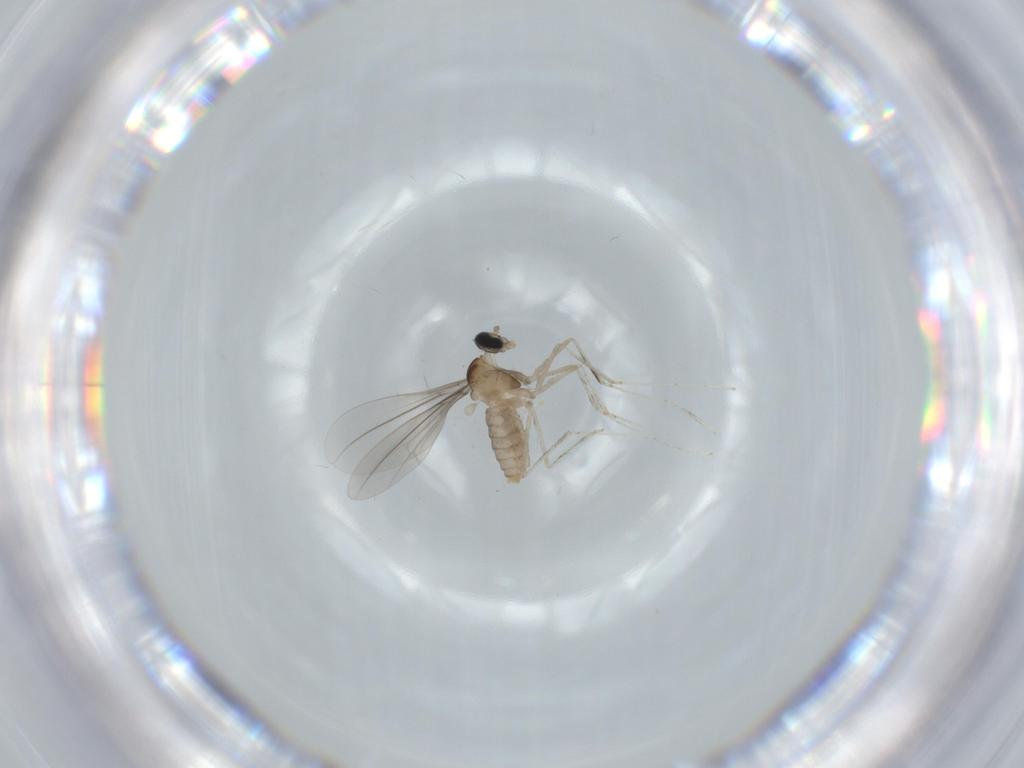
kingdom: Animalia
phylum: Arthropoda
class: Insecta
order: Diptera
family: Cecidomyiidae
